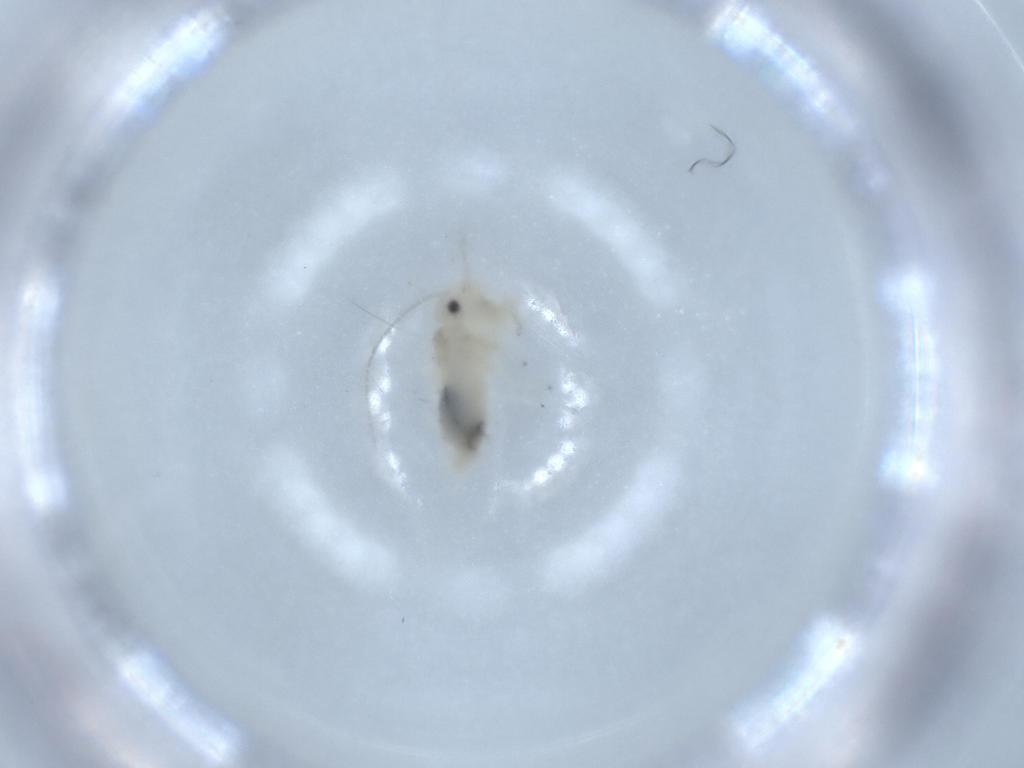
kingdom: Animalia
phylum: Arthropoda
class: Insecta
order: Psocodea
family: Caeciliusidae
